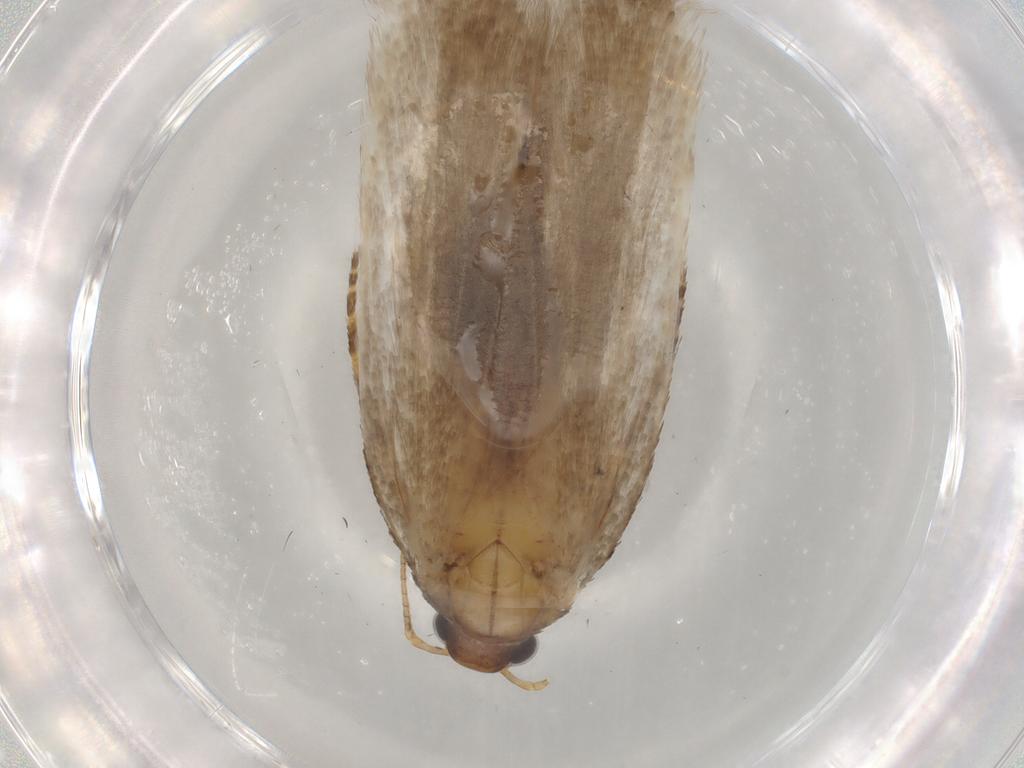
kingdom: Animalia
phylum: Arthropoda
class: Insecta
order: Lepidoptera
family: Gelechiidae
